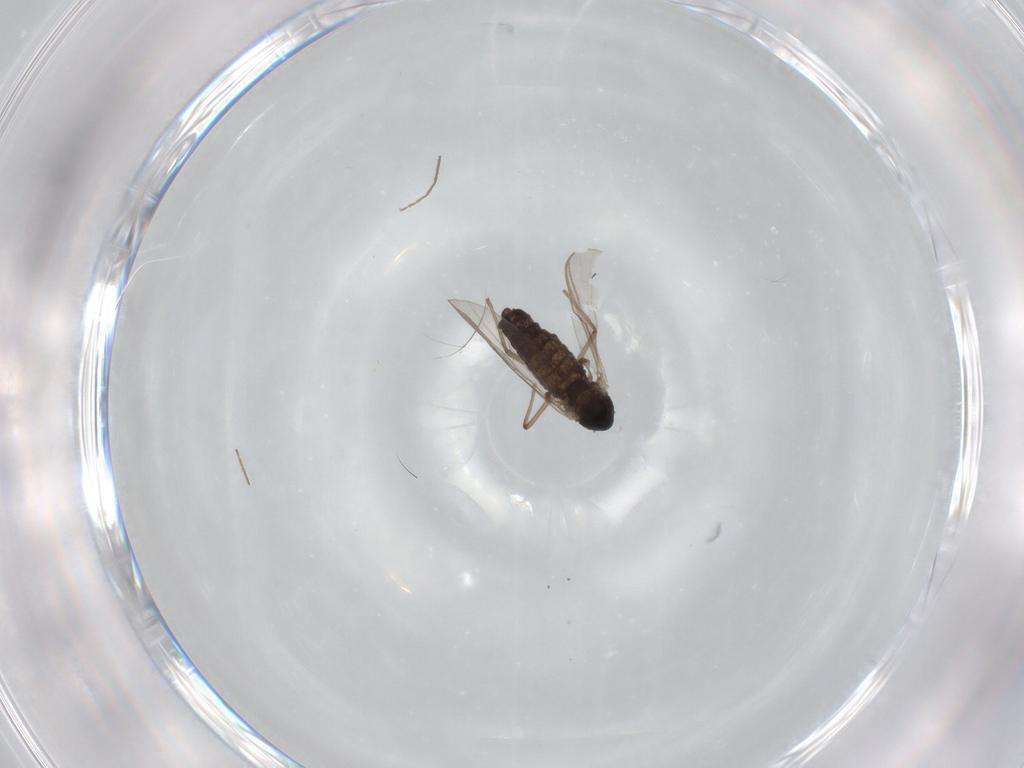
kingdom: Animalia
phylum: Arthropoda
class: Insecta
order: Diptera
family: Chironomidae
